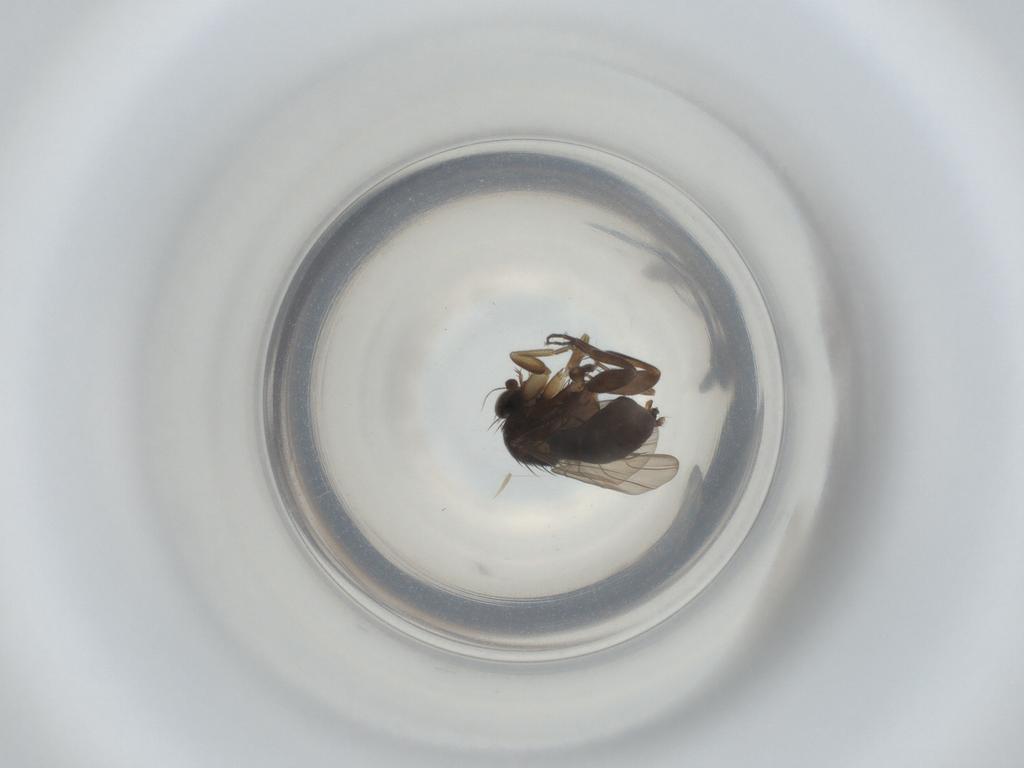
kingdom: Animalia
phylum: Arthropoda
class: Insecta
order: Diptera
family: Phoridae
